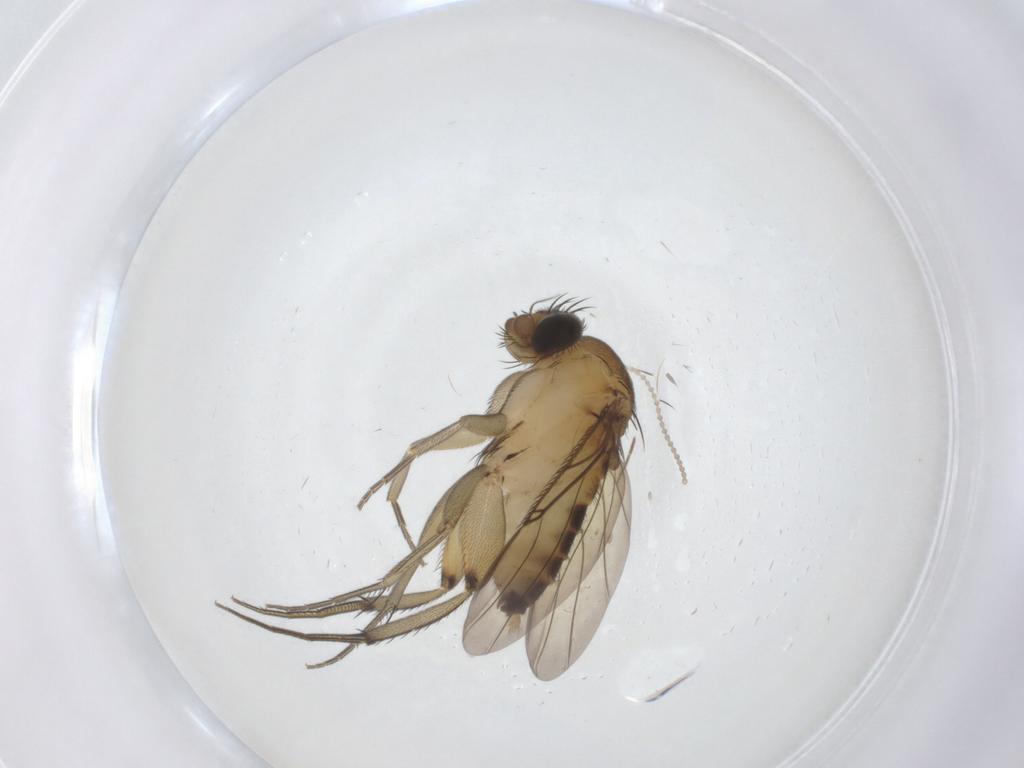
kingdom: Animalia
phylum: Arthropoda
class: Insecta
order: Diptera
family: Phoridae
